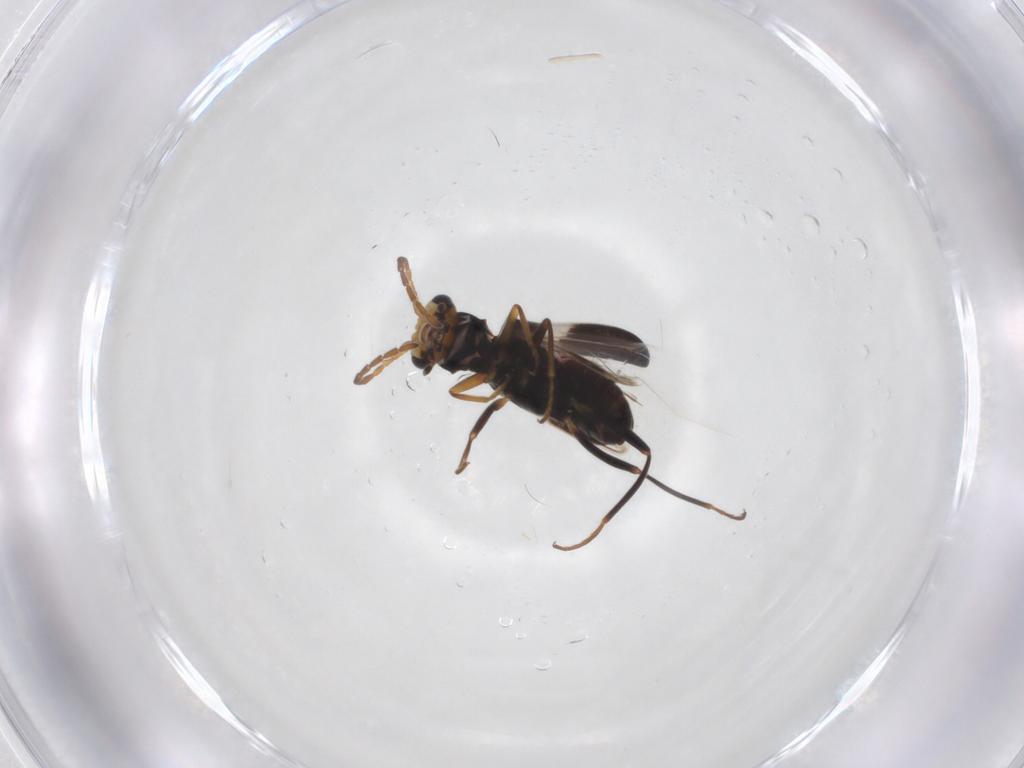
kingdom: Animalia
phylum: Arthropoda
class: Insecta
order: Coleoptera
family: Melyridae
